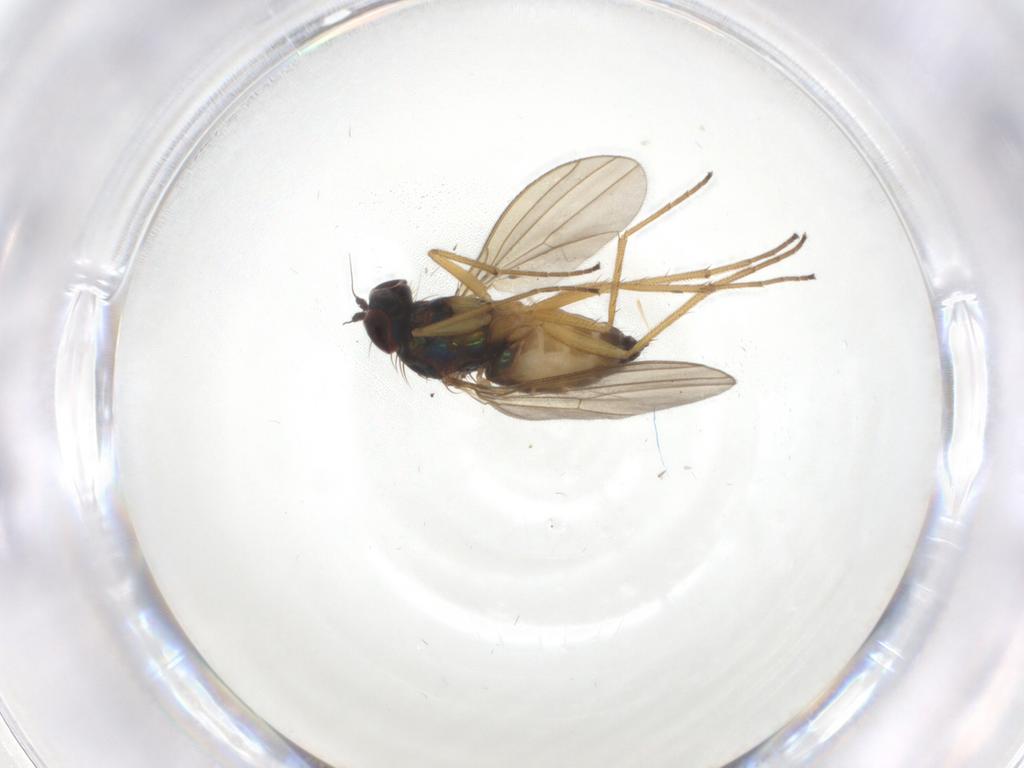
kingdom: Animalia
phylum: Arthropoda
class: Insecta
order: Diptera
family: Dolichopodidae
